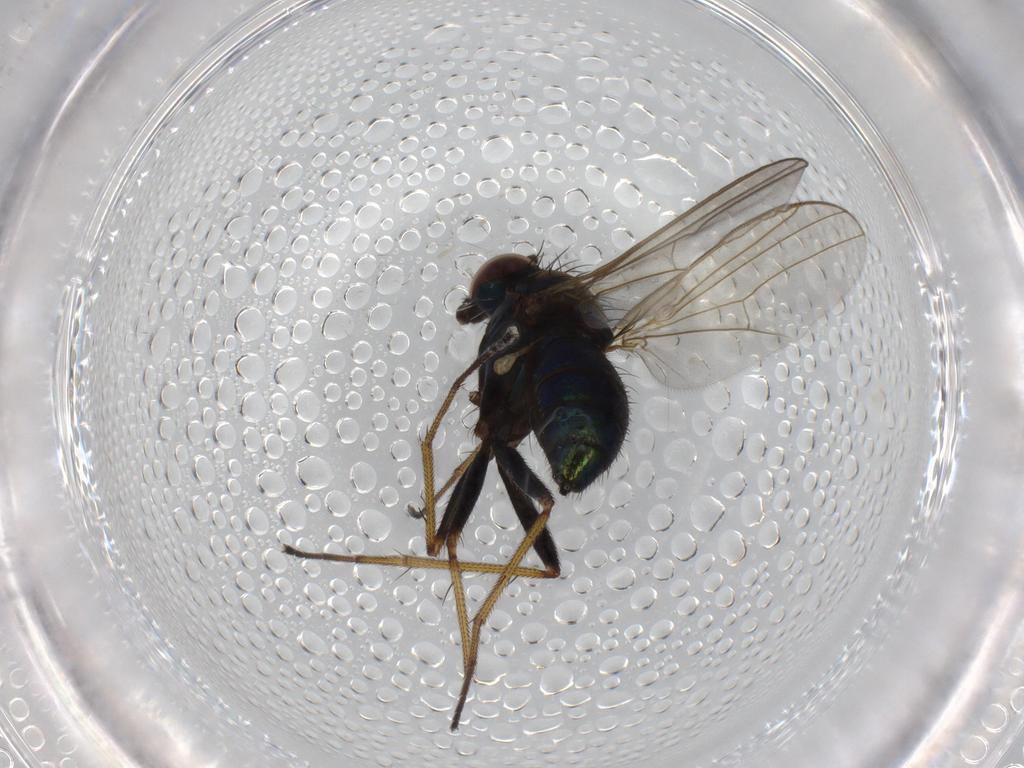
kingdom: Animalia
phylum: Arthropoda
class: Insecta
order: Diptera
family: Dolichopodidae
